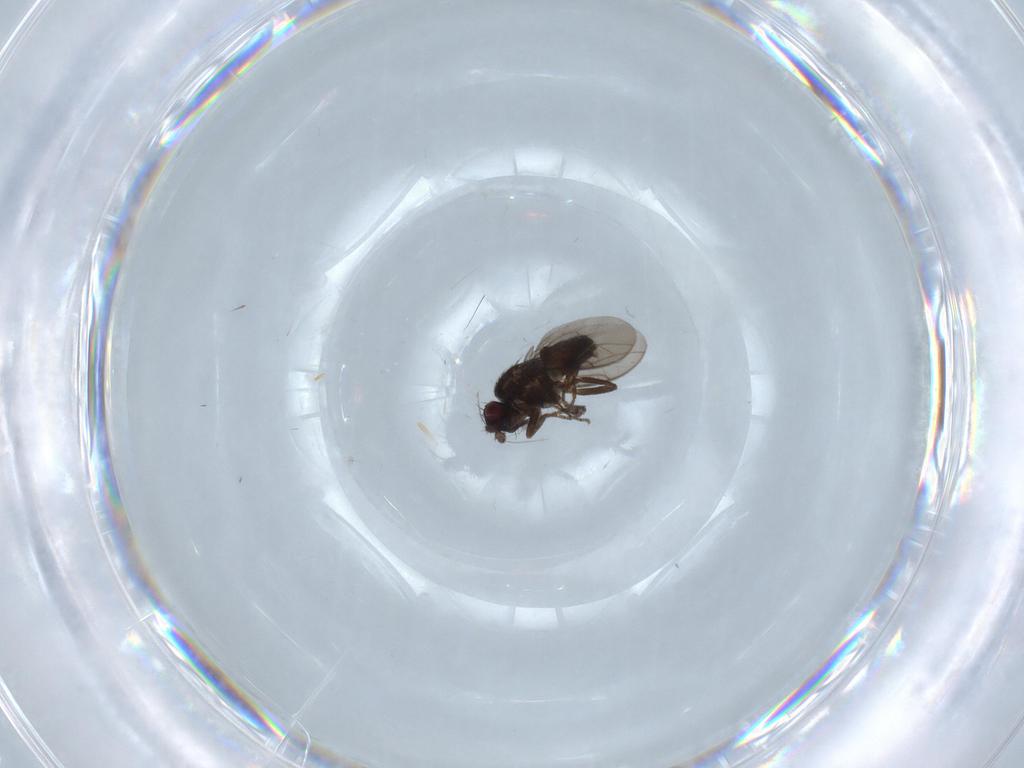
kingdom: Animalia
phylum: Arthropoda
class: Insecta
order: Diptera
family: Sphaeroceridae
